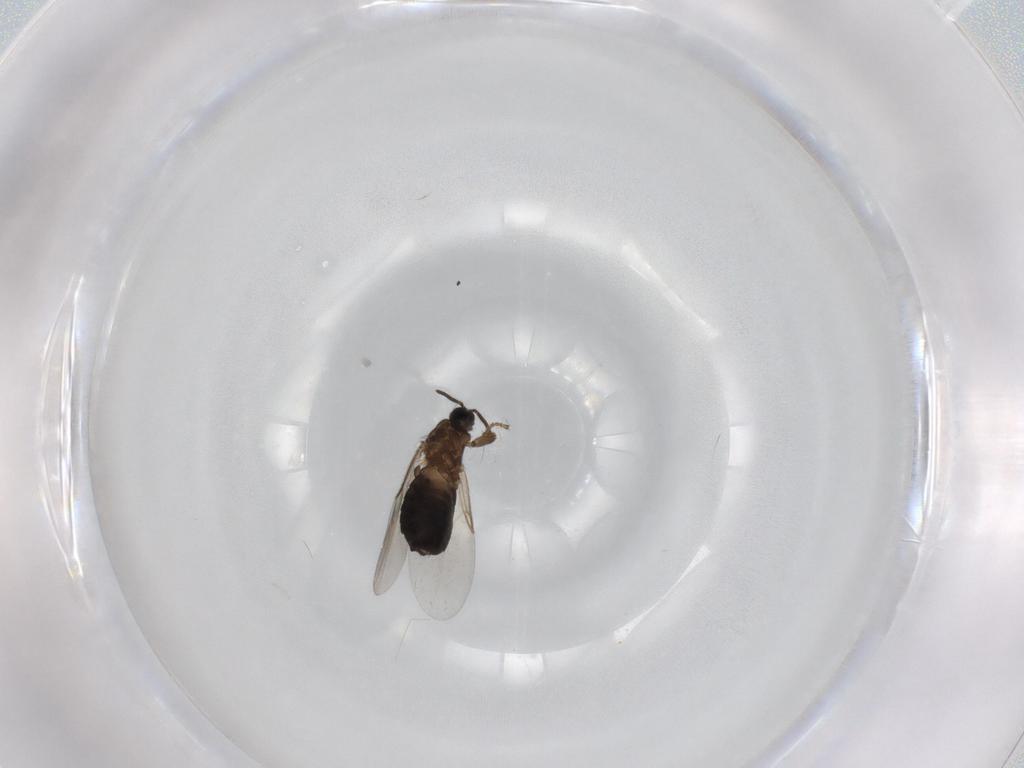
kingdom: Animalia
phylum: Arthropoda
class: Insecta
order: Diptera
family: Scatopsidae
